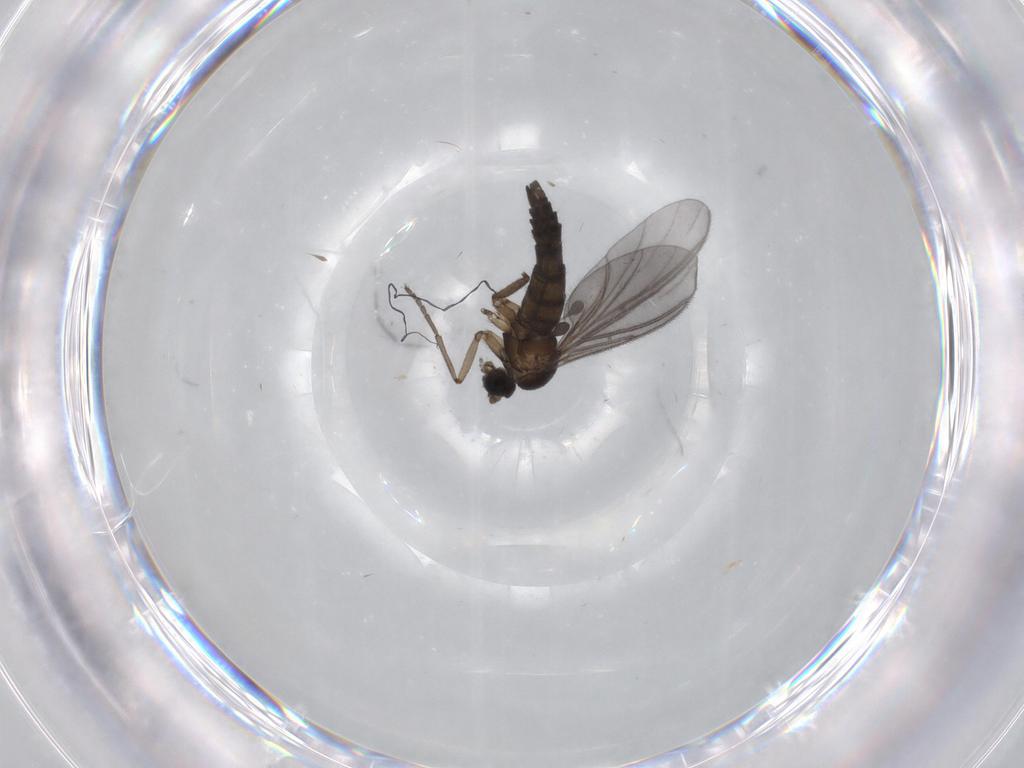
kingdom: Animalia
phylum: Arthropoda
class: Insecta
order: Diptera
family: Sciaridae
